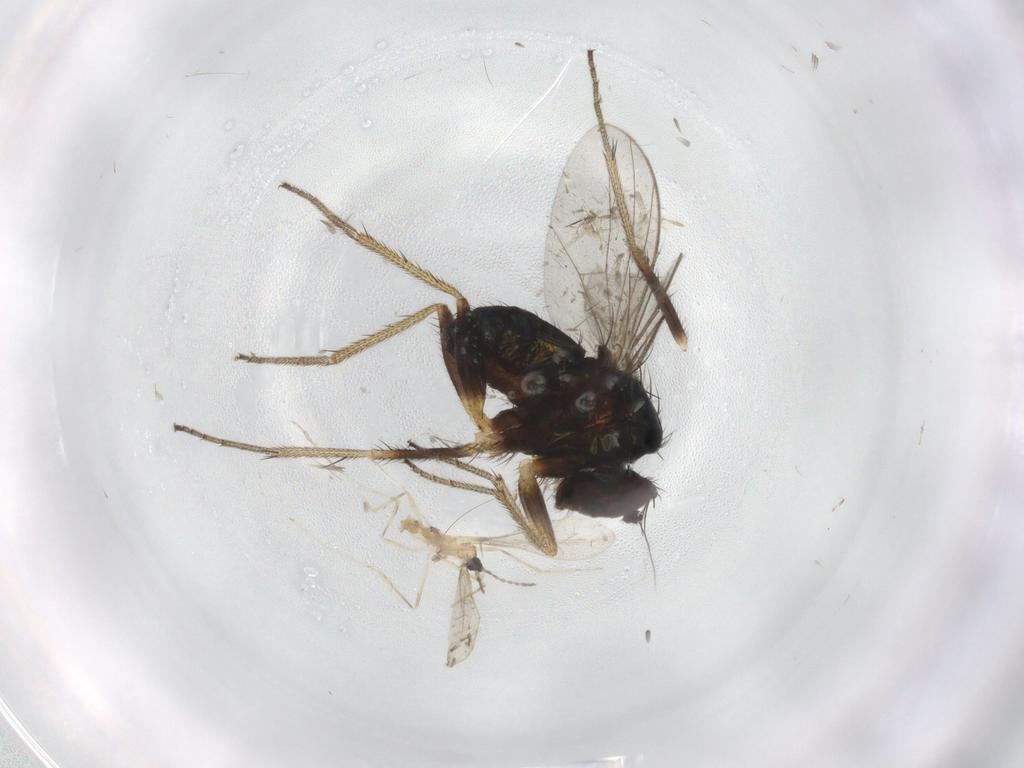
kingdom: Animalia
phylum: Arthropoda
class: Insecta
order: Diptera
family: Cecidomyiidae
